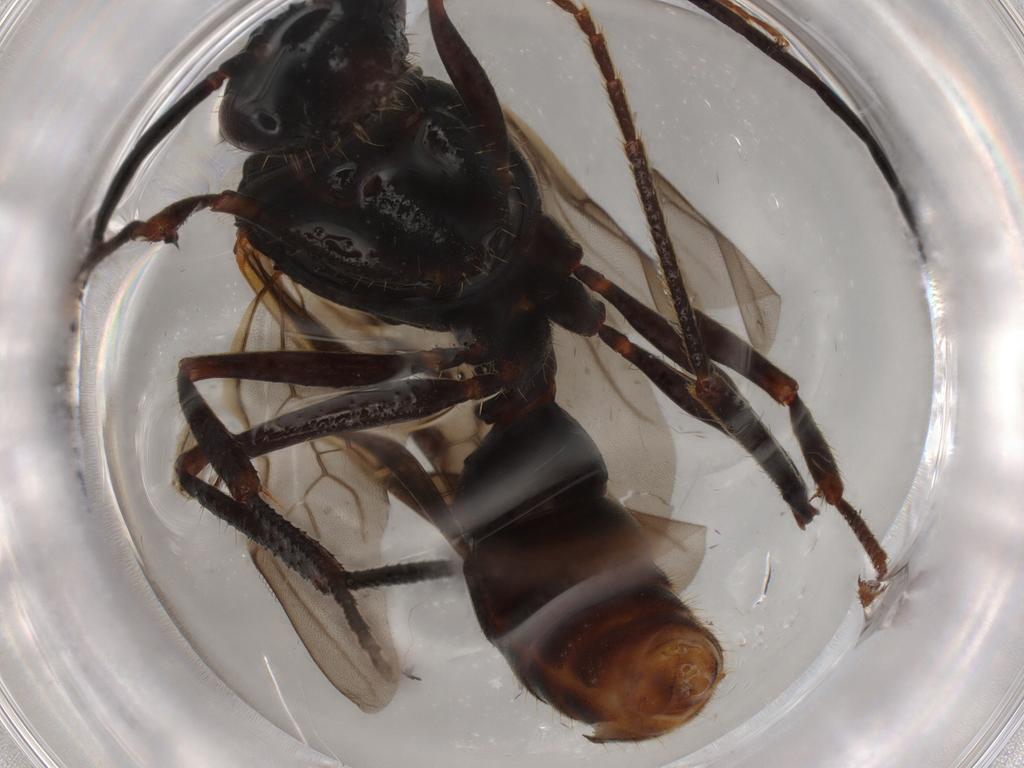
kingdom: Animalia
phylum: Arthropoda
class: Insecta
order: Hymenoptera
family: Formicidae
